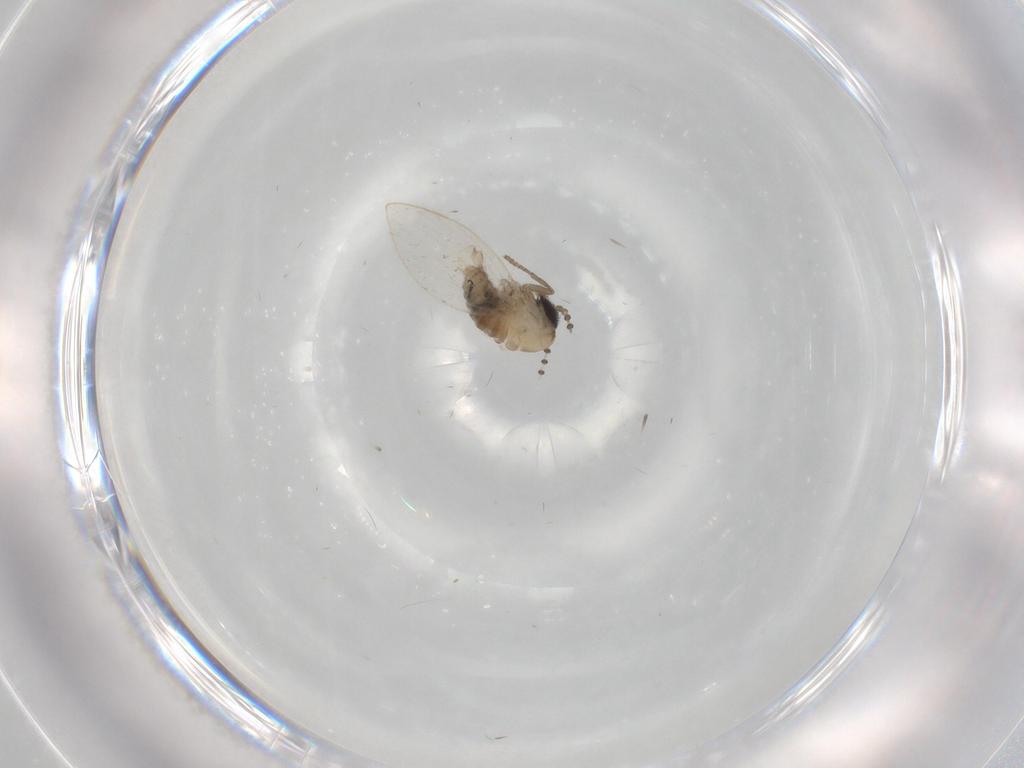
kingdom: Animalia
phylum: Arthropoda
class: Insecta
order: Diptera
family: Psychodidae
